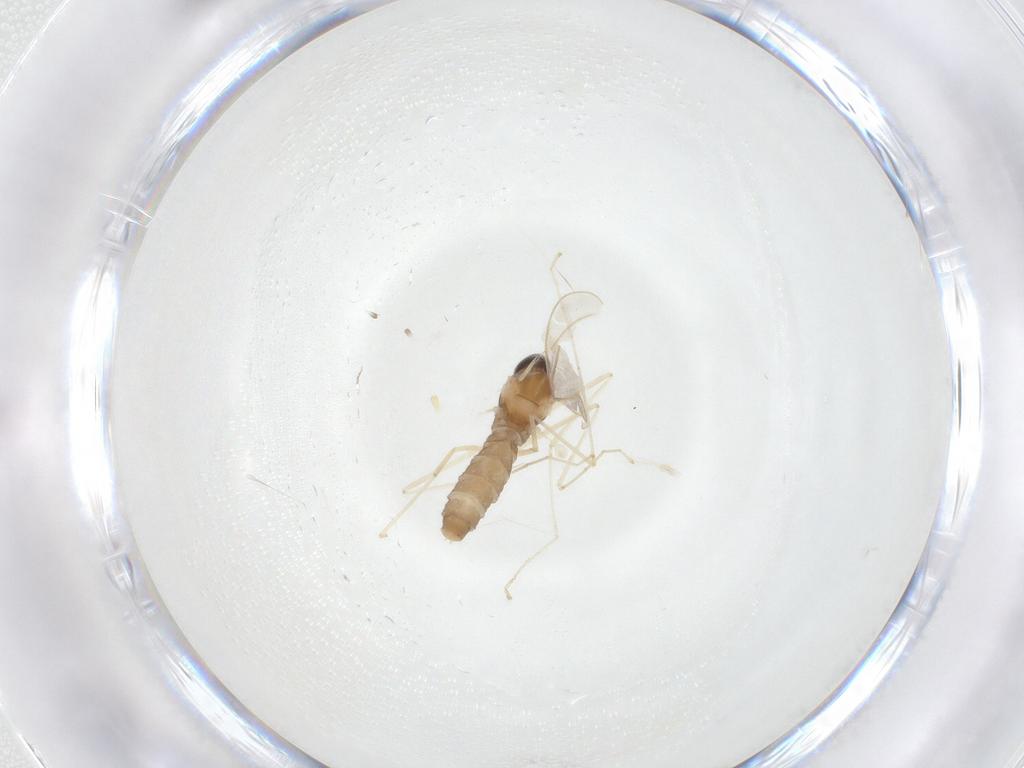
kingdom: Animalia
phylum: Arthropoda
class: Insecta
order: Diptera
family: Cecidomyiidae
